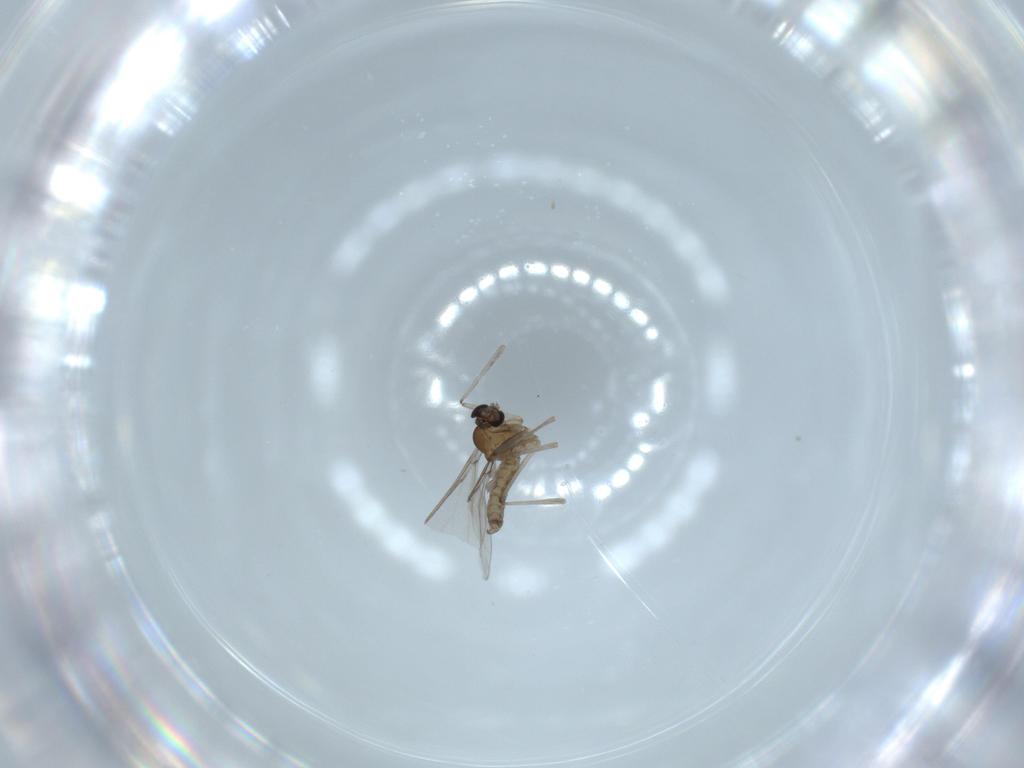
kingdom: Animalia
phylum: Arthropoda
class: Insecta
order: Diptera
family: Cecidomyiidae
